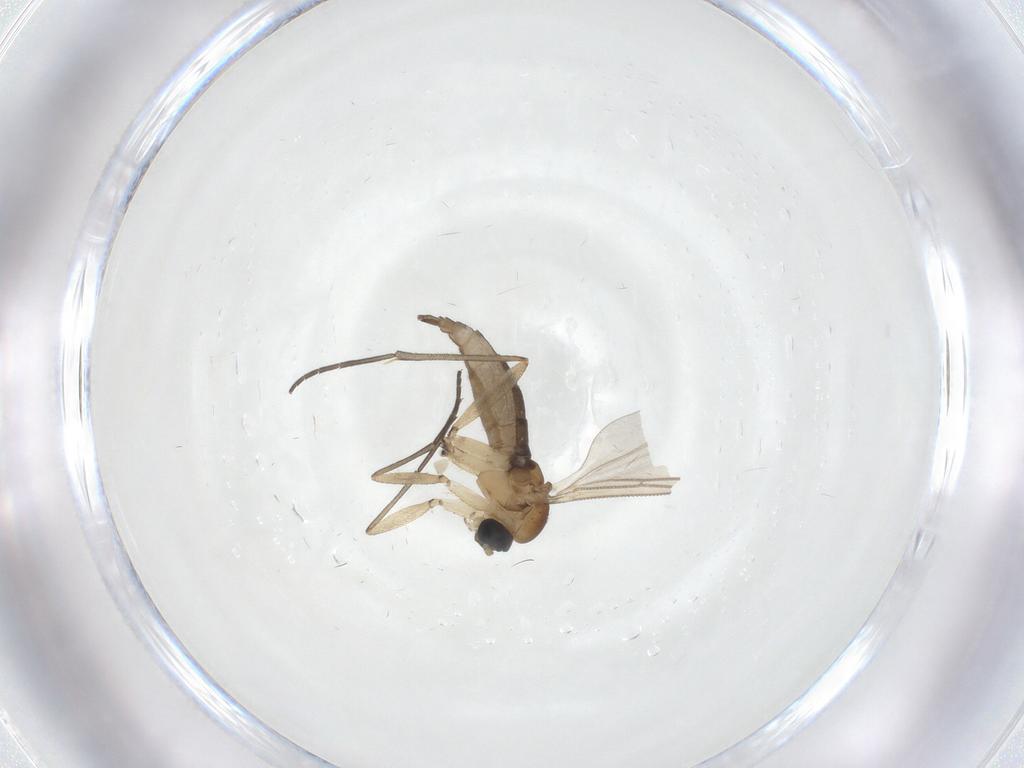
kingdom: Animalia
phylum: Arthropoda
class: Insecta
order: Diptera
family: Sciaridae
